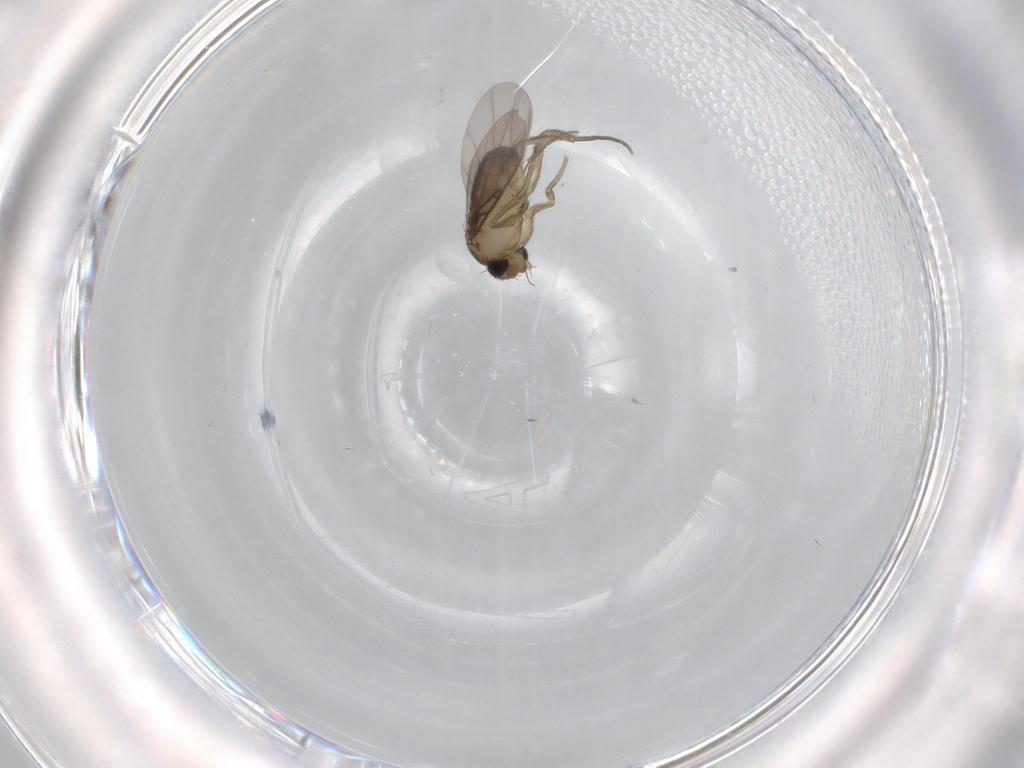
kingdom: Animalia
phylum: Arthropoda
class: Insecta
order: Diptera
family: Phoridae
